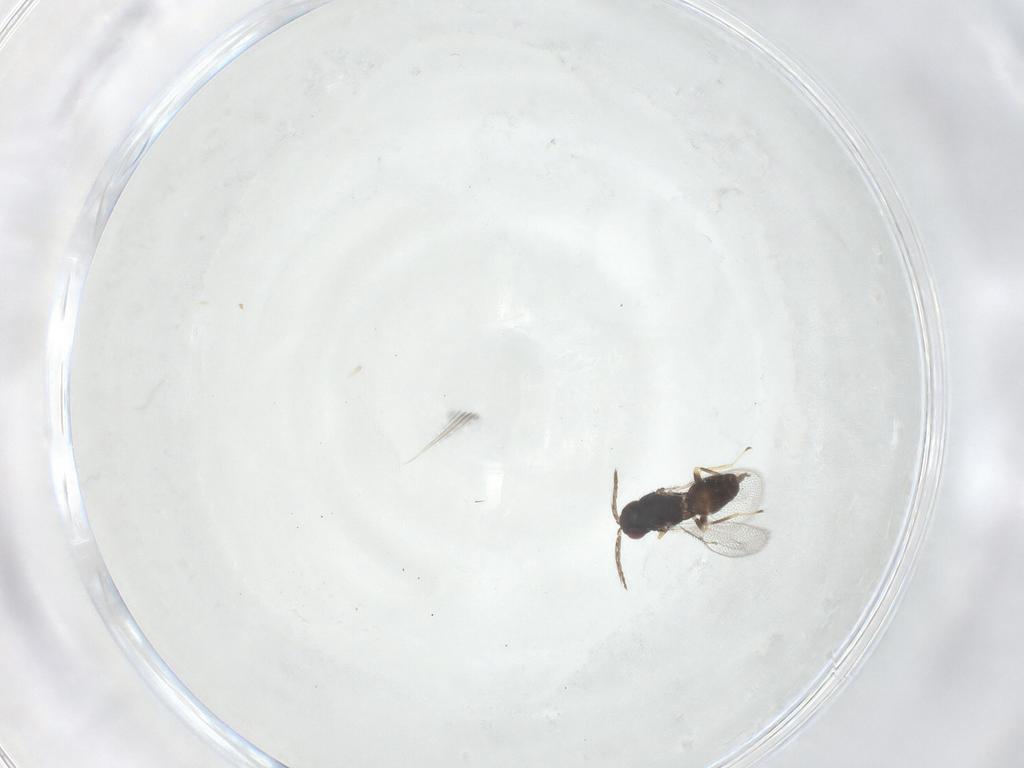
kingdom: Animalia
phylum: Arthropoda
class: Insecta
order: Hymenoptera
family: Eulophidae
